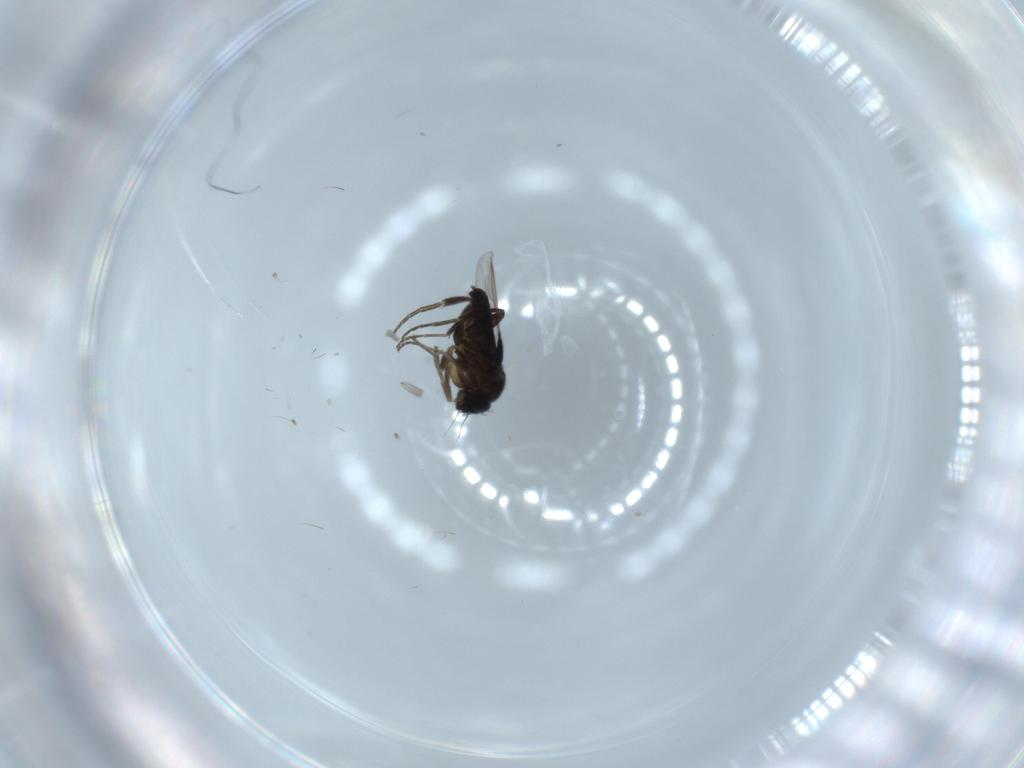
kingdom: Animalia
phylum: Arthropoda
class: Insecta
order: Diptera
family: Phoridae
